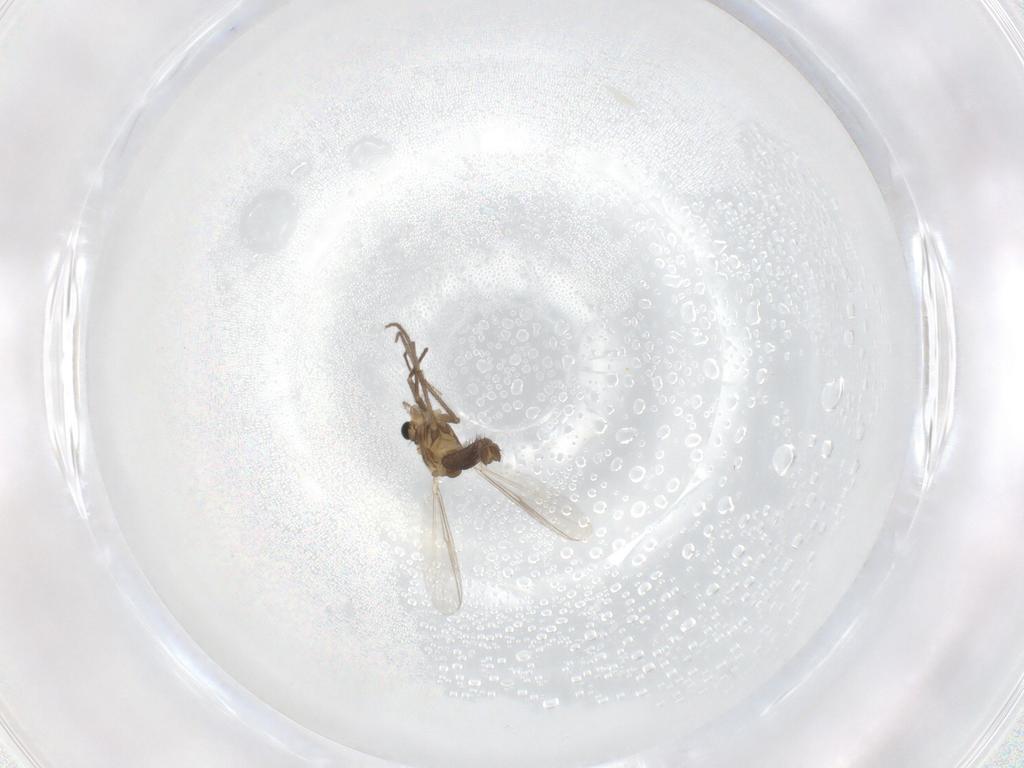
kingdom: Animalia
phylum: Arthropoda
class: Insecta
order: Diptera
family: Chironomidae
